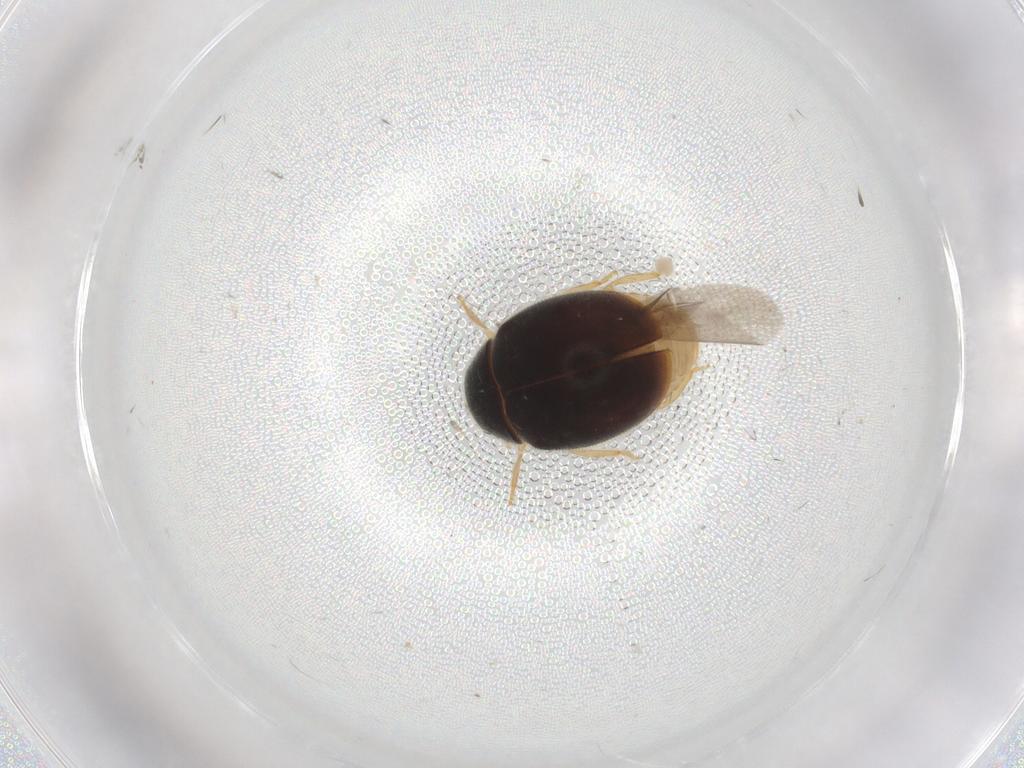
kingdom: Animalia
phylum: Arthropoda
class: Insecta
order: Coleoptera
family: Coccinellidae
